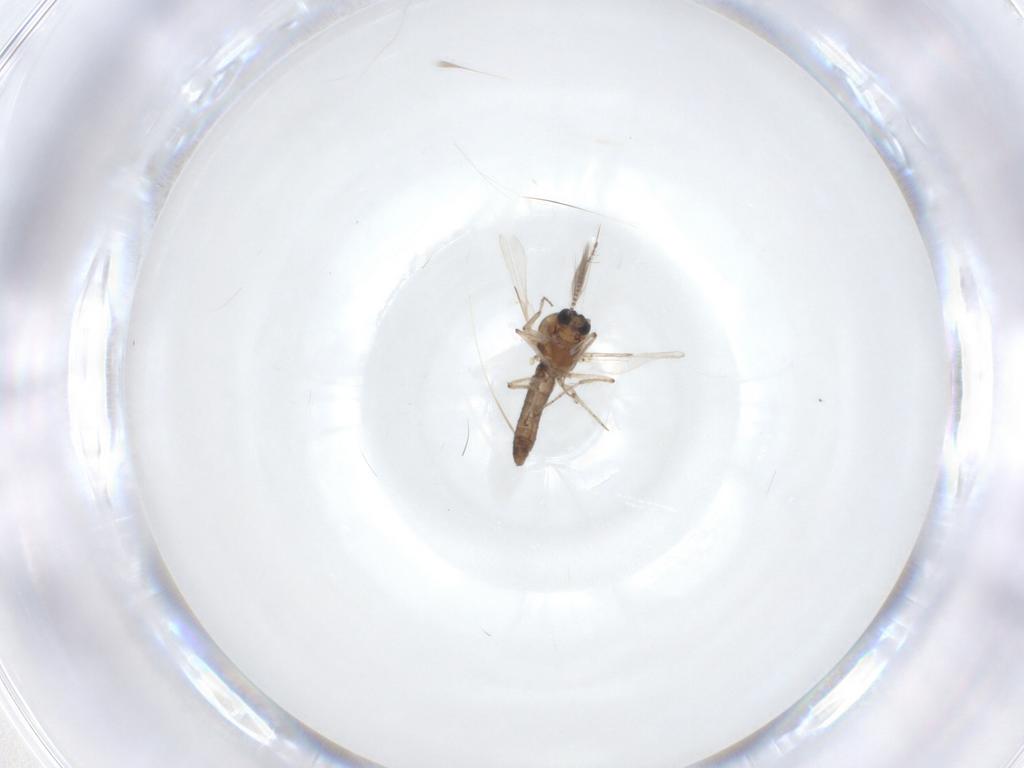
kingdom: Animalia
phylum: Arthropoda
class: Insecta
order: Diptera
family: Ceratopogonidae
